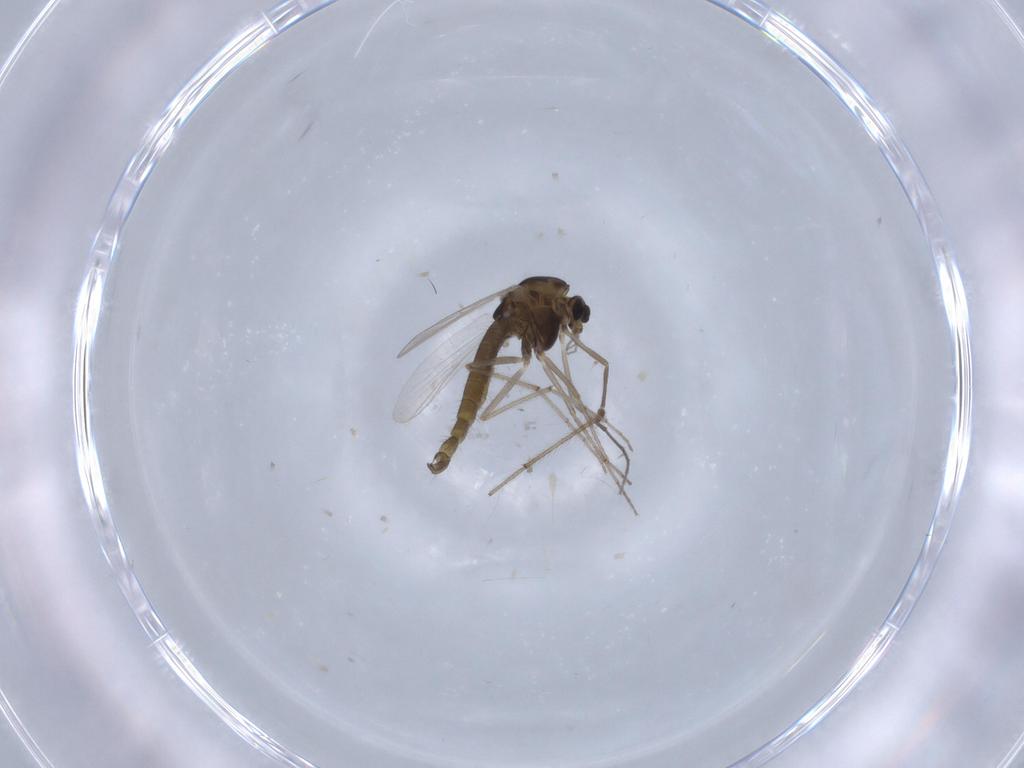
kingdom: Animalia
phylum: Arthropoda
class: Insecta
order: Diptera
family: Chironomidae
